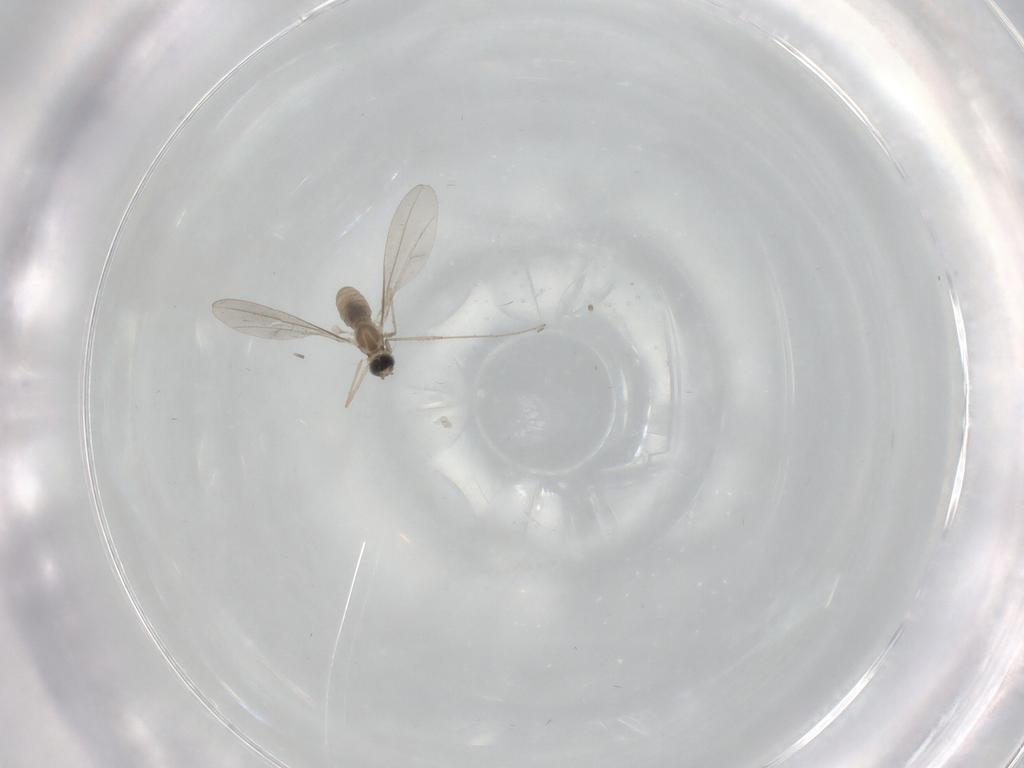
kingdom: Animalia
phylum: Arthropoda
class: Insecta
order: Diptera
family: Cecidomyiidae
